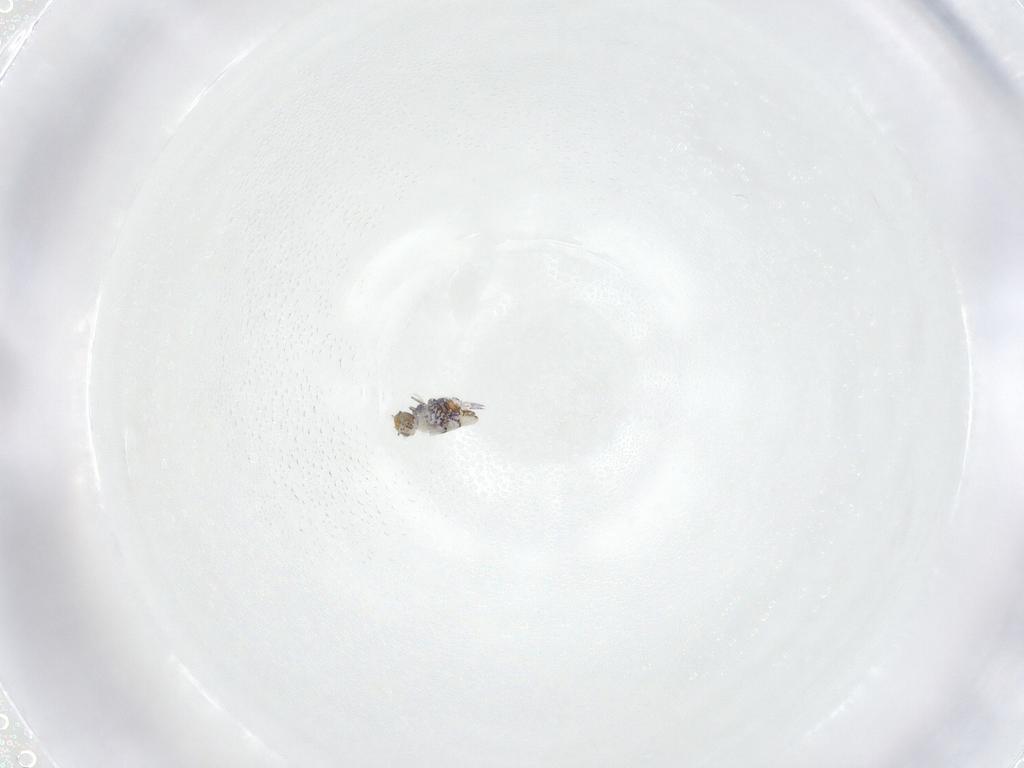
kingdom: Animalia
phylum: Arthropoda
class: Collembola
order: Symphypleona
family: Katiannidae
